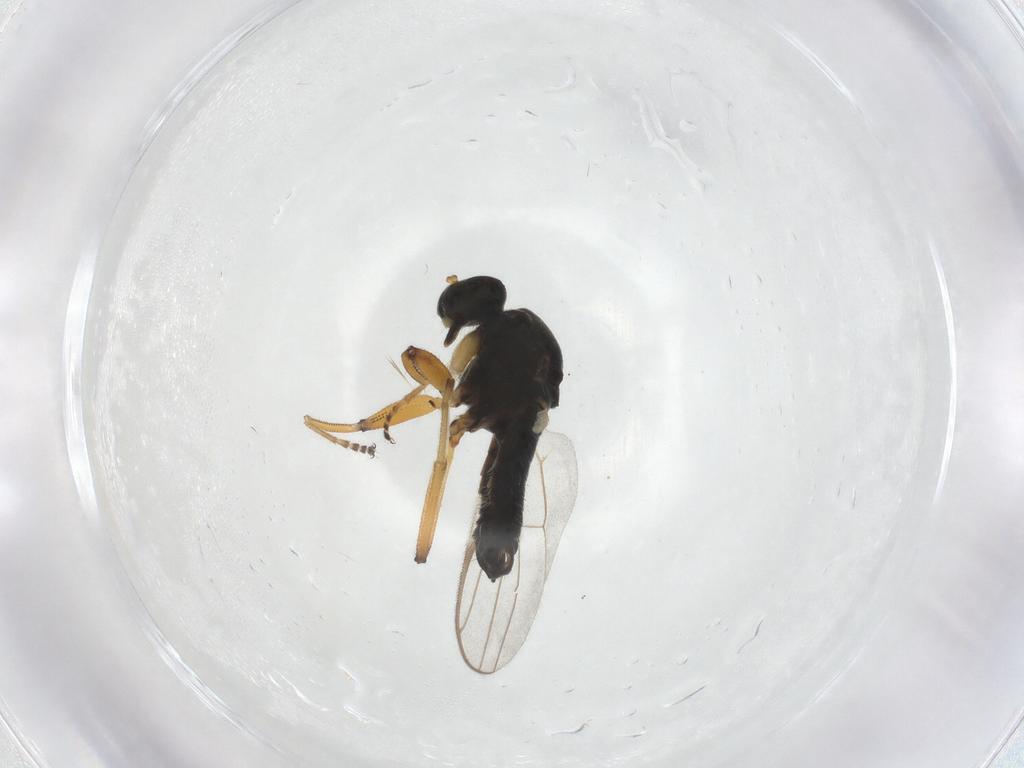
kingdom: Animalia
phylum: Arthropoda
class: Insecta
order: Diptera
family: Hybotidae
